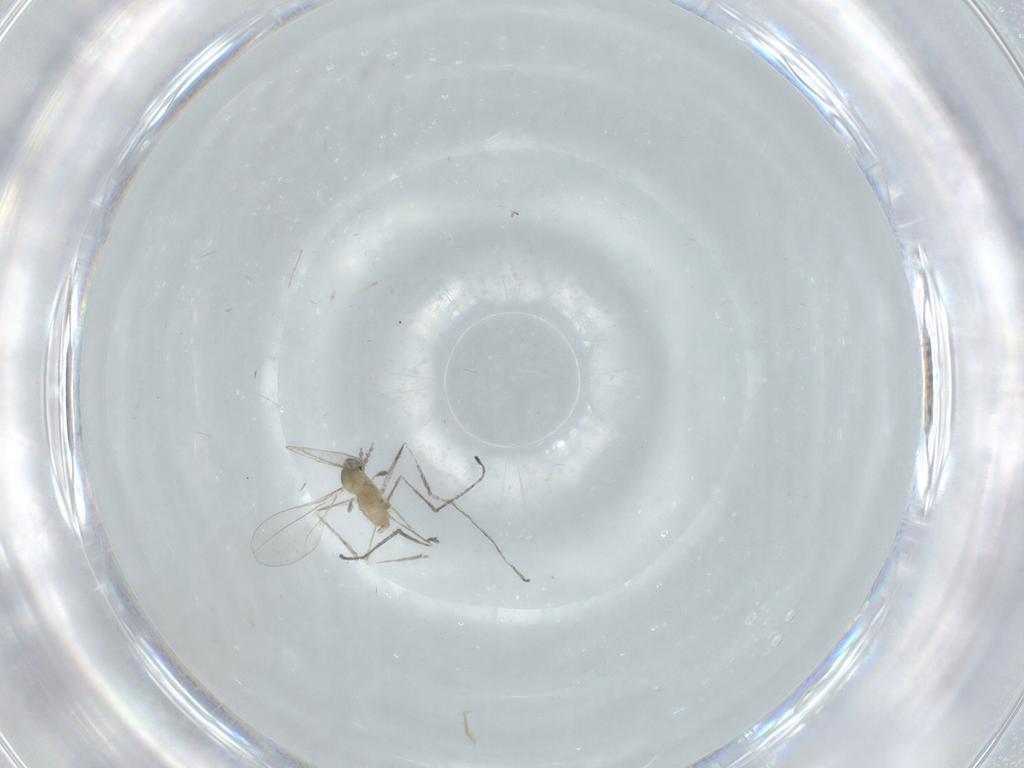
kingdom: Animalia
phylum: Arthropoda
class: Insecta
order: Diptera
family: Cecidomyiidae
